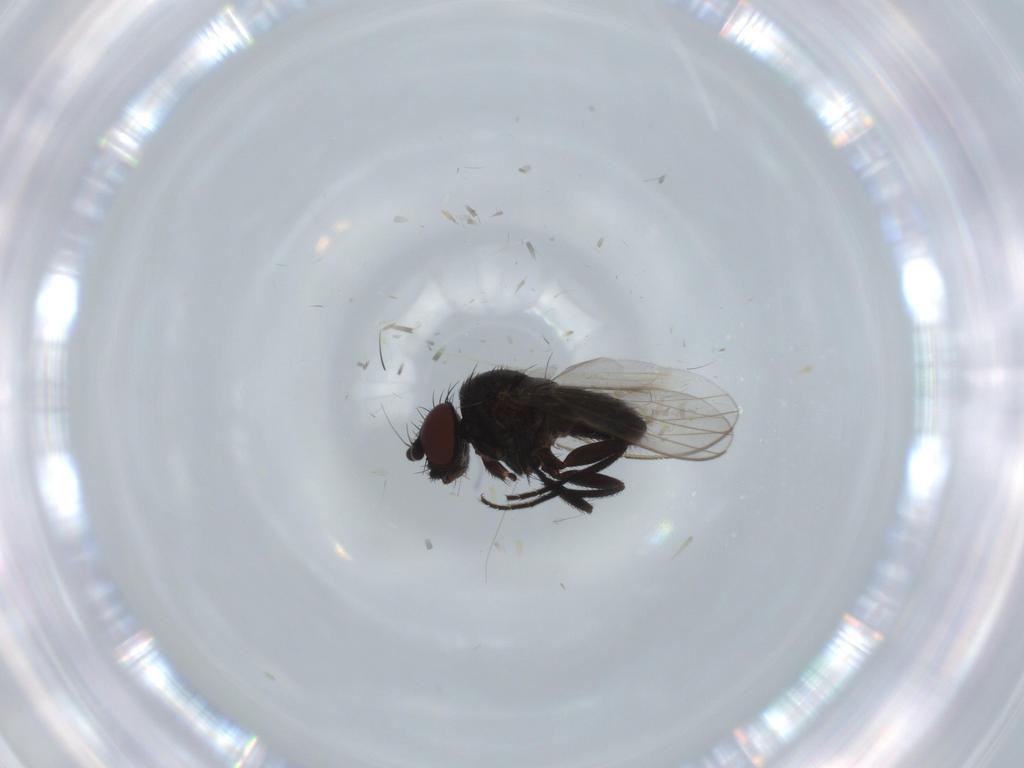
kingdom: Animalia
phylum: Arthropoda
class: Insecta
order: Diptera
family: Milichiidae
